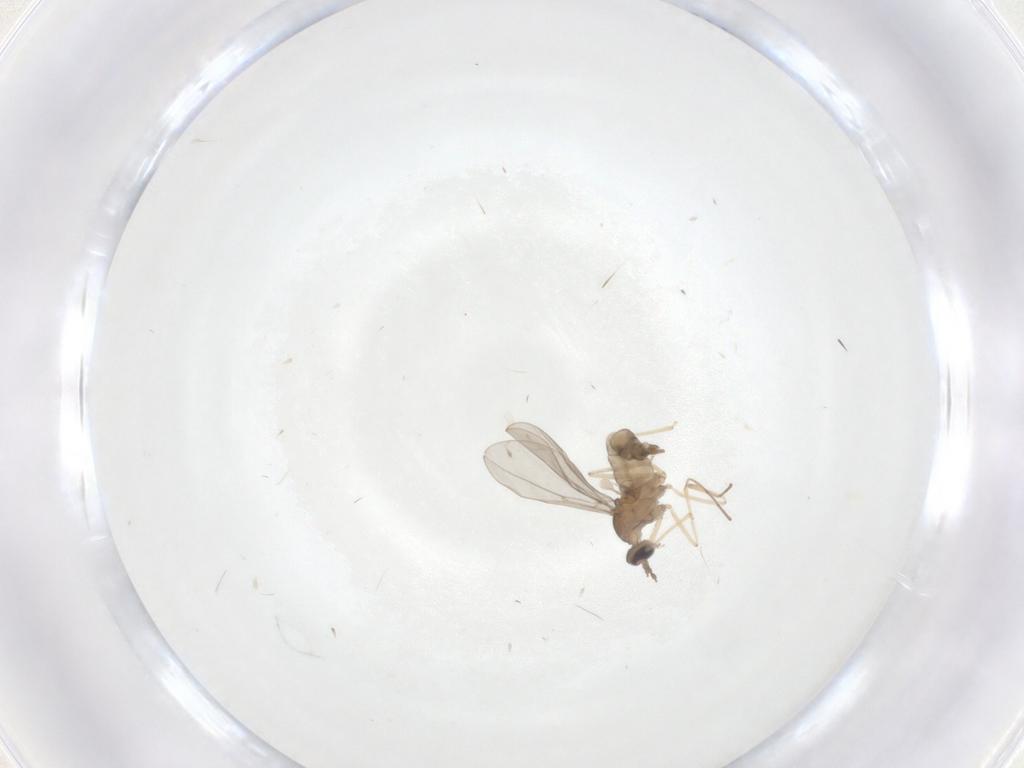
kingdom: Animalia
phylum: Arthropoda
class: Insecta
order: Diptera
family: Cecidomyiidae
